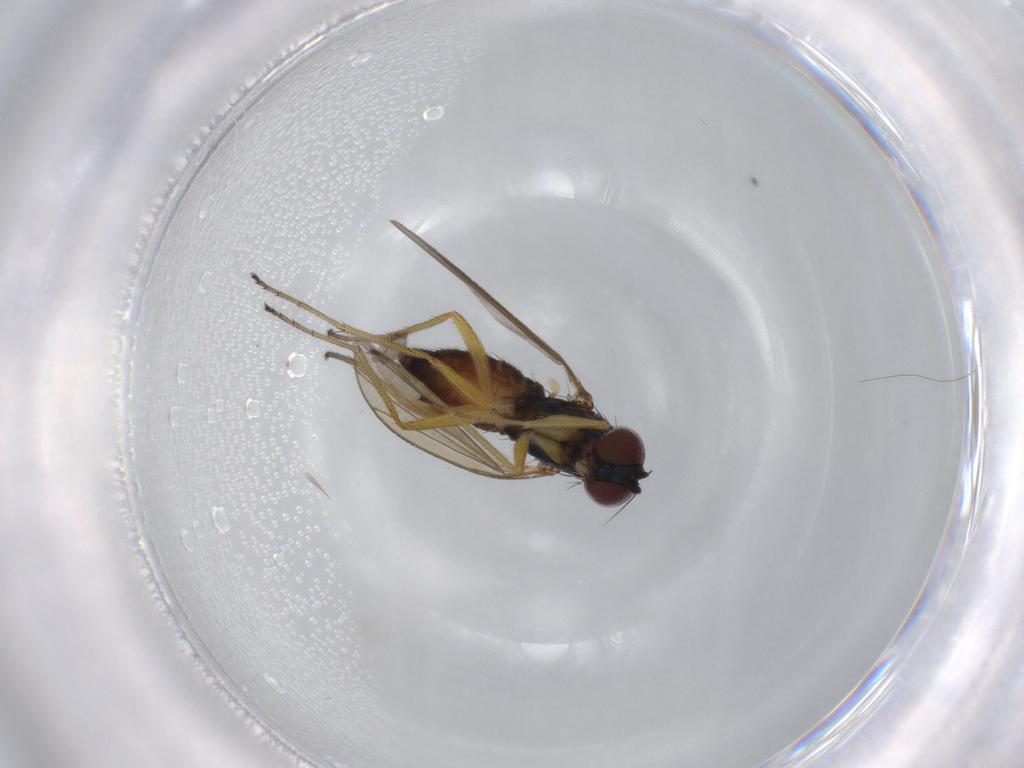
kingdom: Animalia
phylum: Arthropoda
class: Insecta
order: Diptera
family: Dolichopodidae
